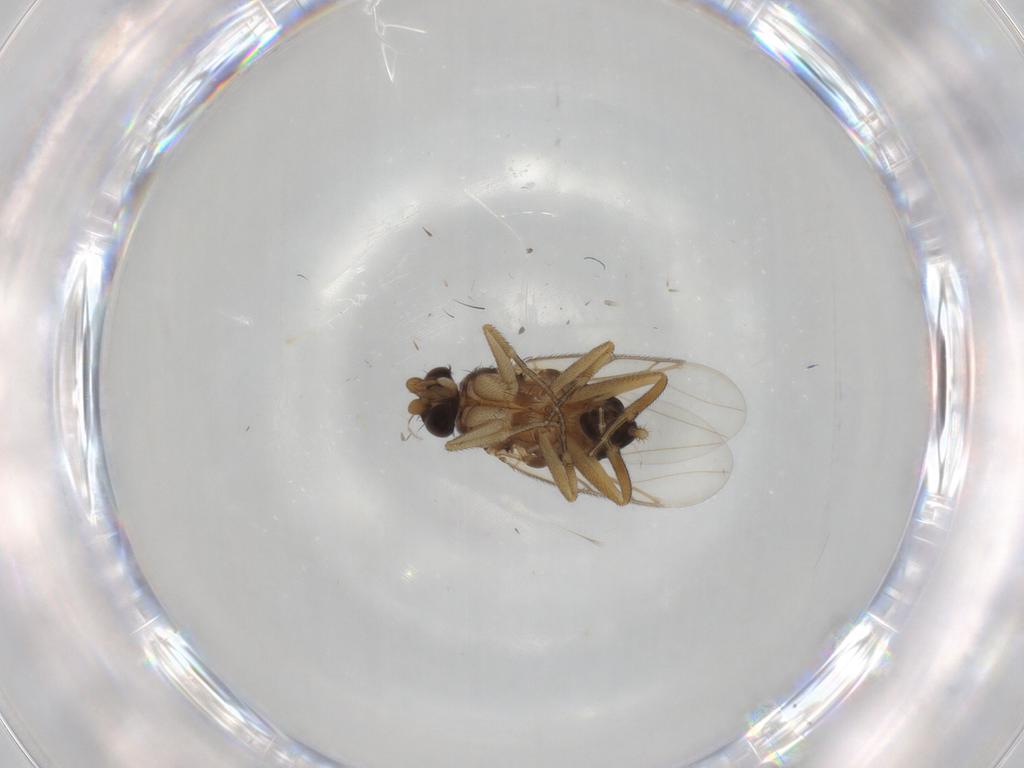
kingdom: Animalia
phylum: Arthropoda
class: Insecta
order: Diptera
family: Phoridae
